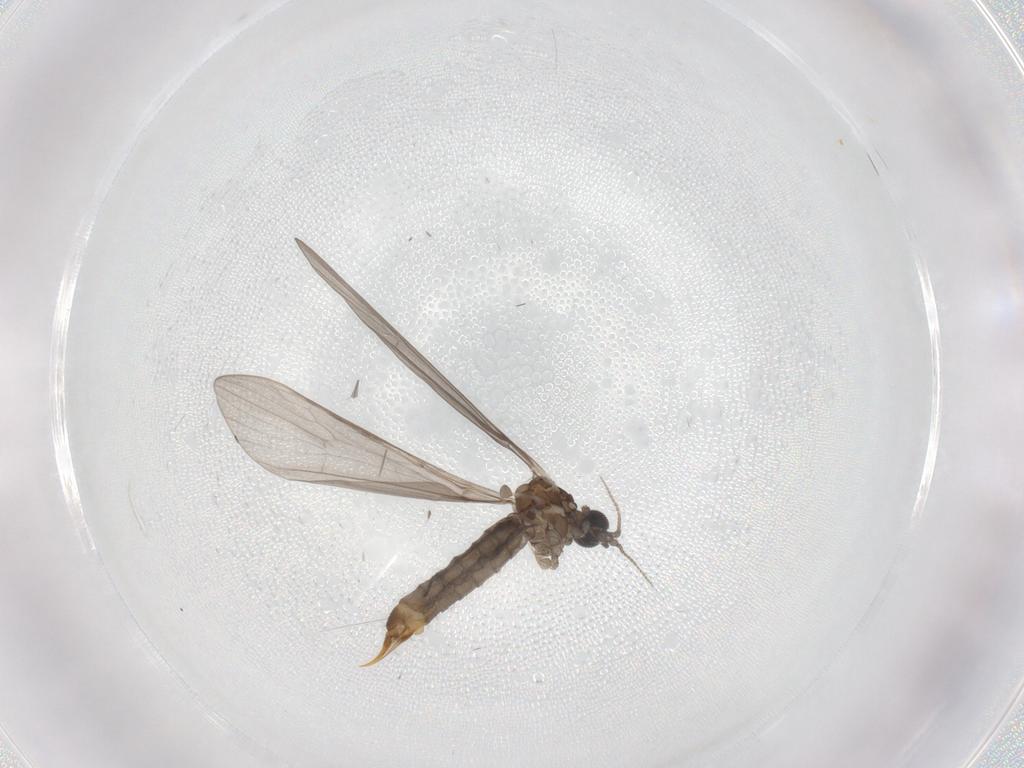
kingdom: Animalia
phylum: Arthropoda
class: Insecta
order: Diptera
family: Limoniidae
